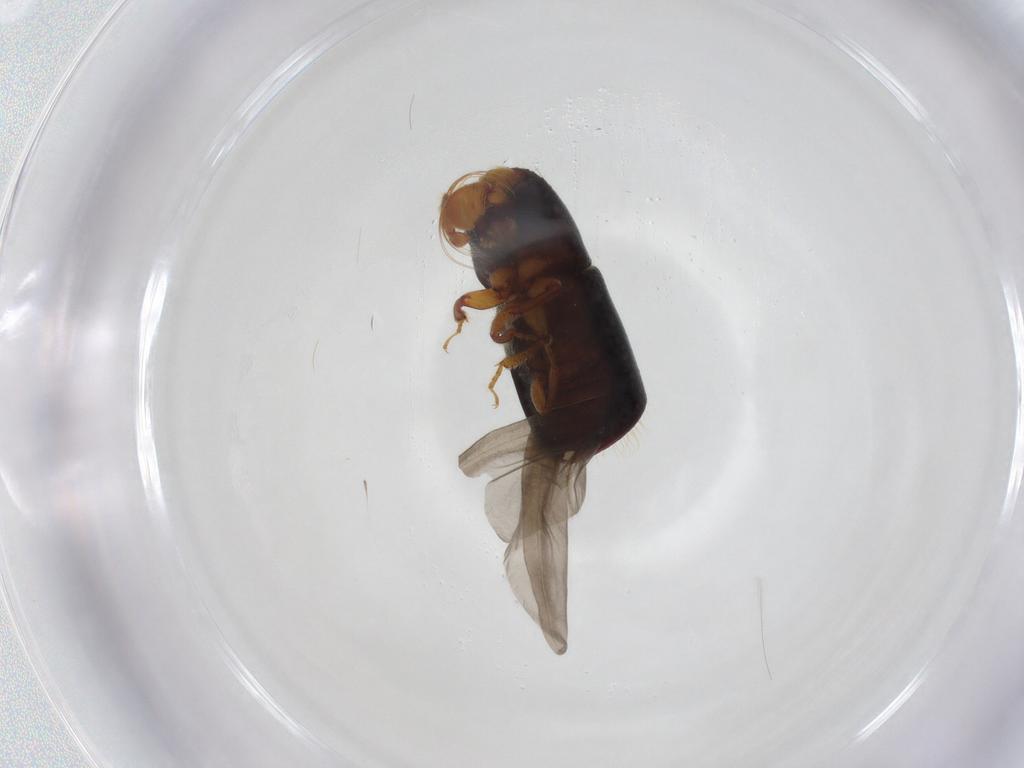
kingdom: Animalia
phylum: Arthropoda
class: Insecta
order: Coleoptera
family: Curculionidae
